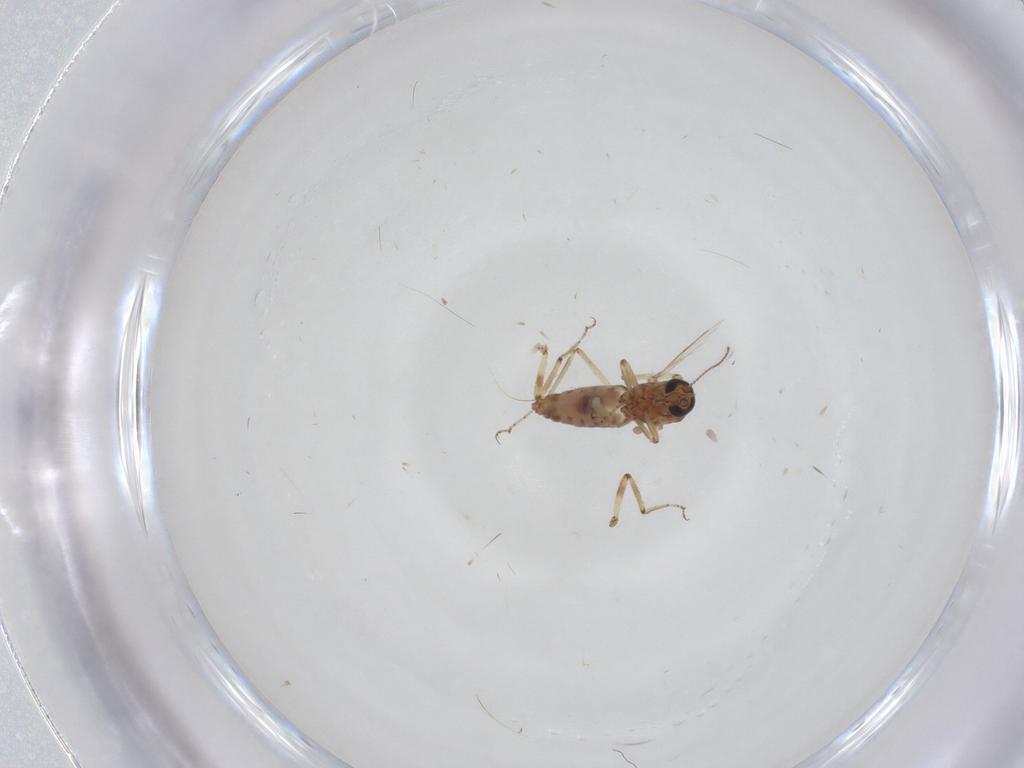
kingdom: Animalia
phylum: Arthropoda
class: Insecta
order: Diptera
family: Ceratopogonidae
